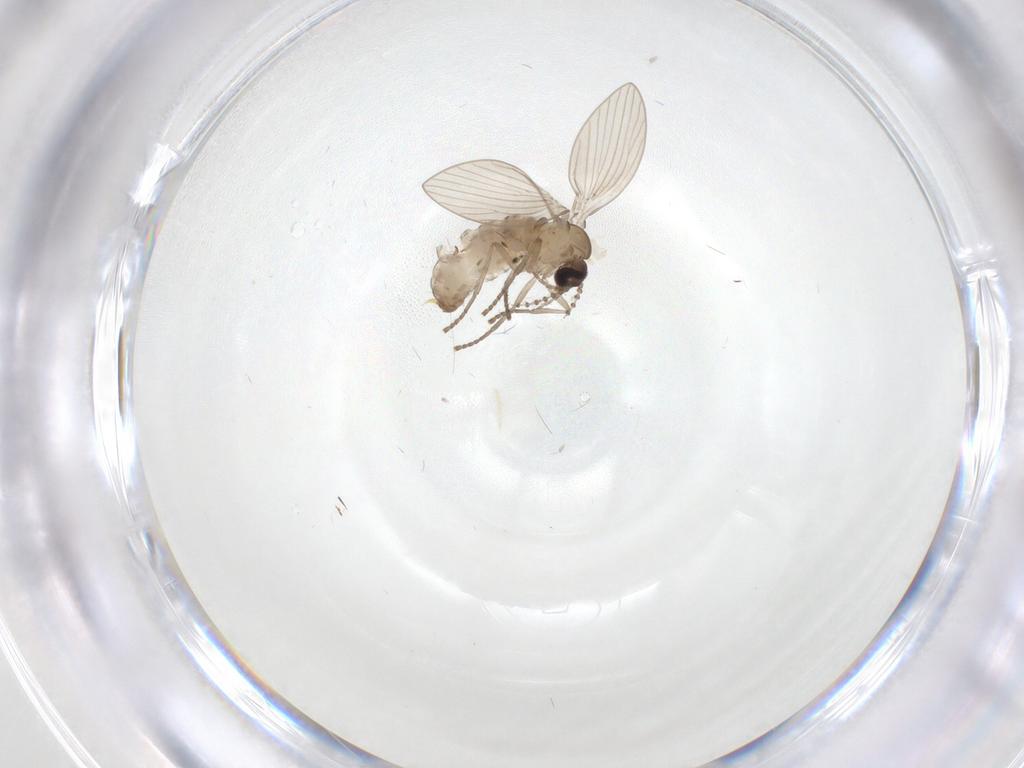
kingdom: Animalia
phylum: Arthropoda
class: Insecta
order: Diptera
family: Psychodidae
